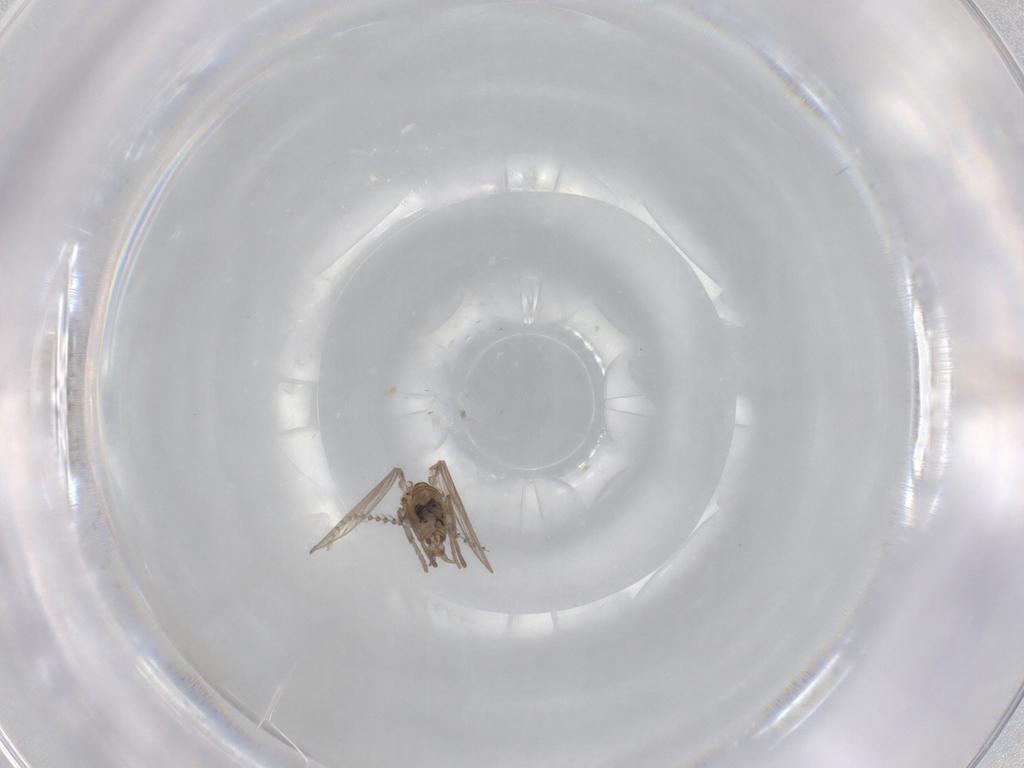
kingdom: Animalia
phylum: Arthropoda
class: Insecta
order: Diptera
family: Psychodidae
